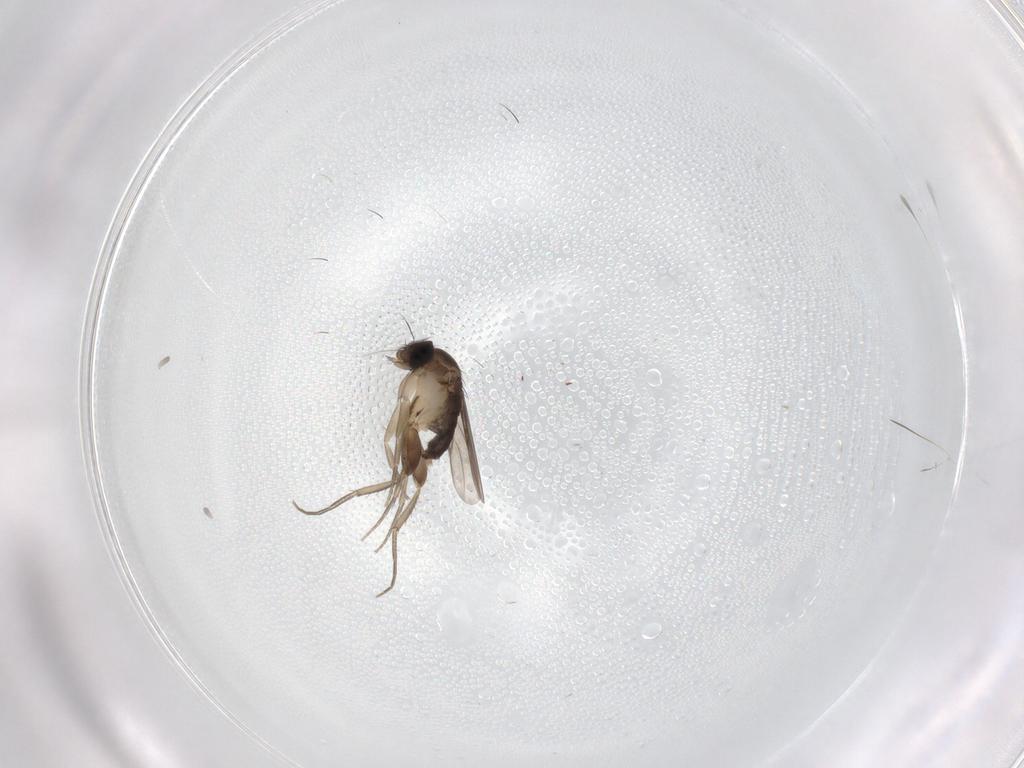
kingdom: Animalia
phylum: Arthropoda
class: Insecta
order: Diptera
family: Phoridae
